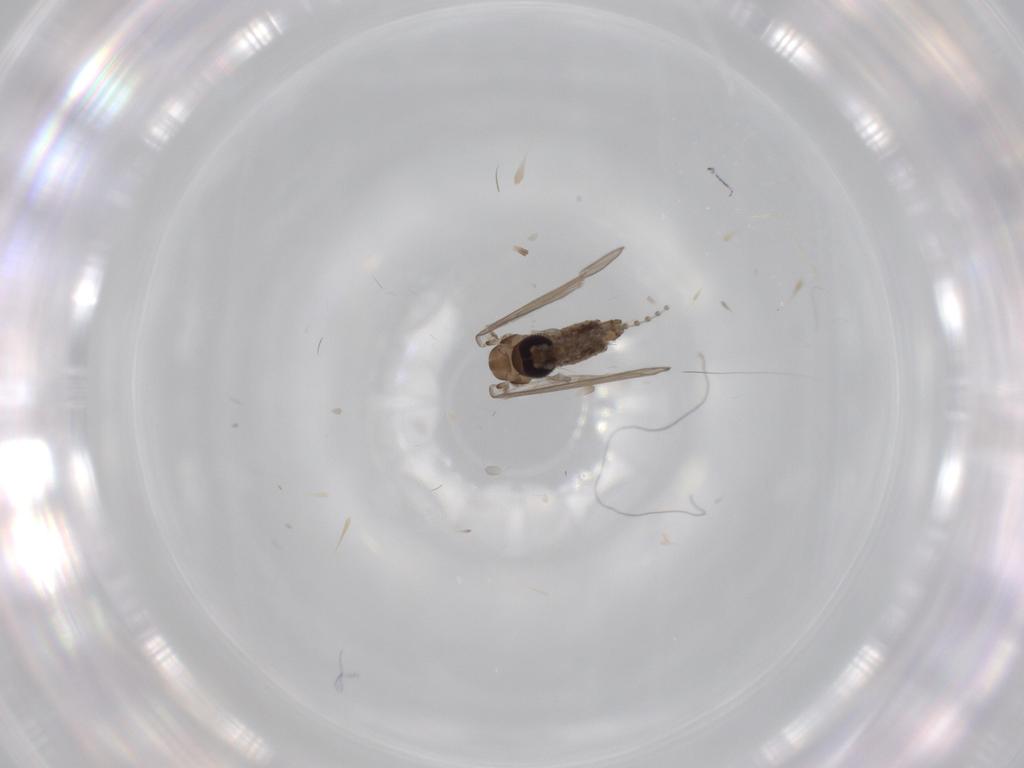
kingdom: Animalia
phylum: Arthropoda
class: Insecta
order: Diptera
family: Psychodidae
